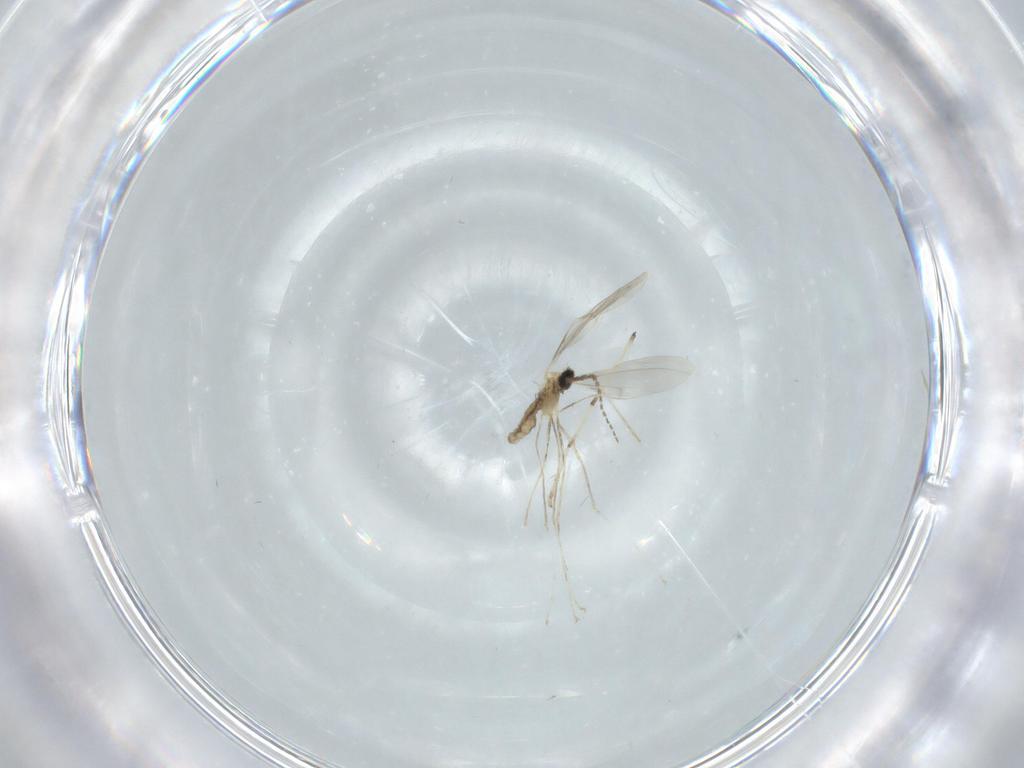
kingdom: Animalia
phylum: Arthropoda
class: Insecta
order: Diptera
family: Cecidomyiidae
